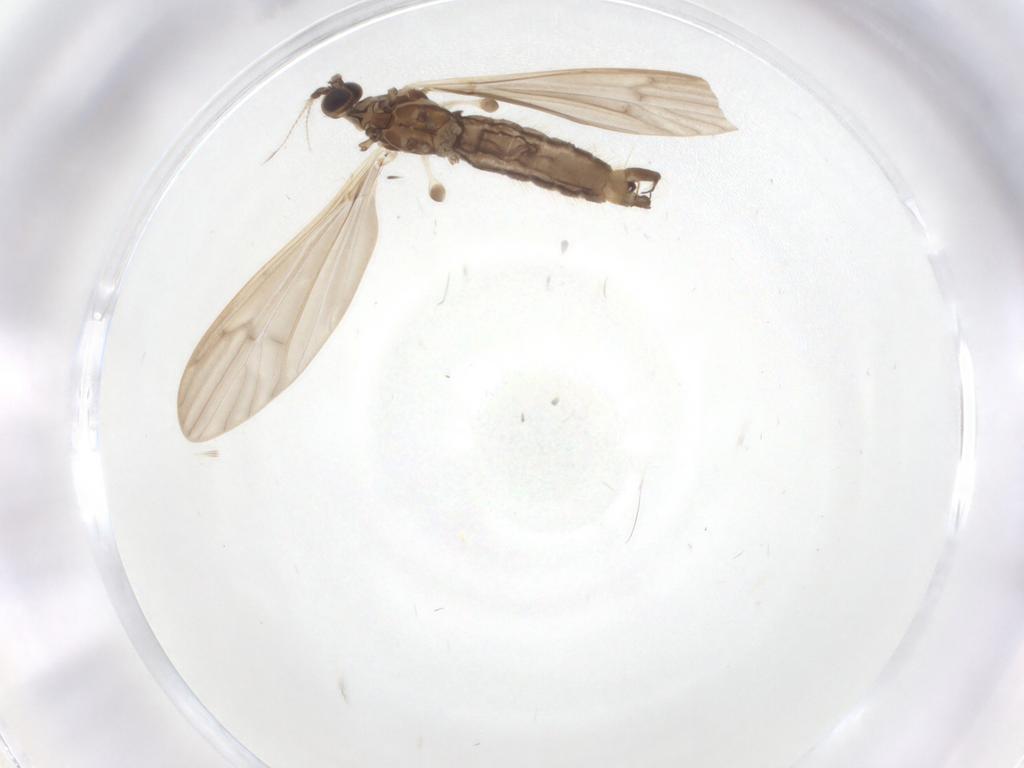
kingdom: Animalia
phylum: Arthropoda
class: Insecta
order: Diptera
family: Limoniidae
